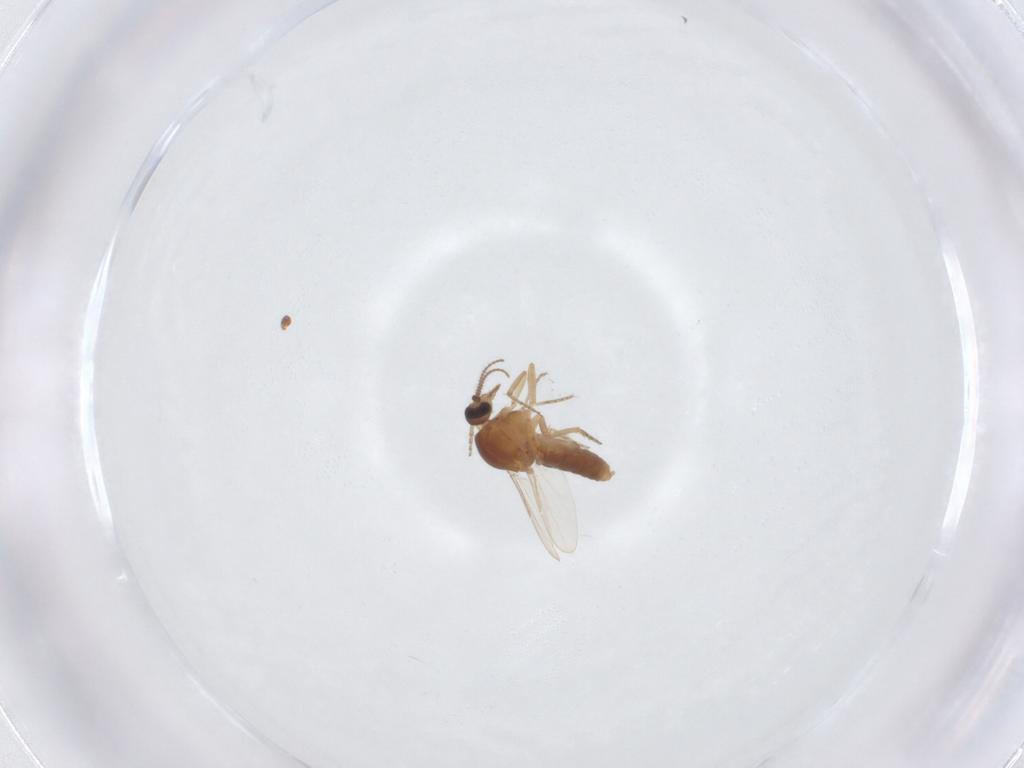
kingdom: Animalia
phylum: Arthropoda
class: Insecta
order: Diptera
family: Ceratopogonidae
